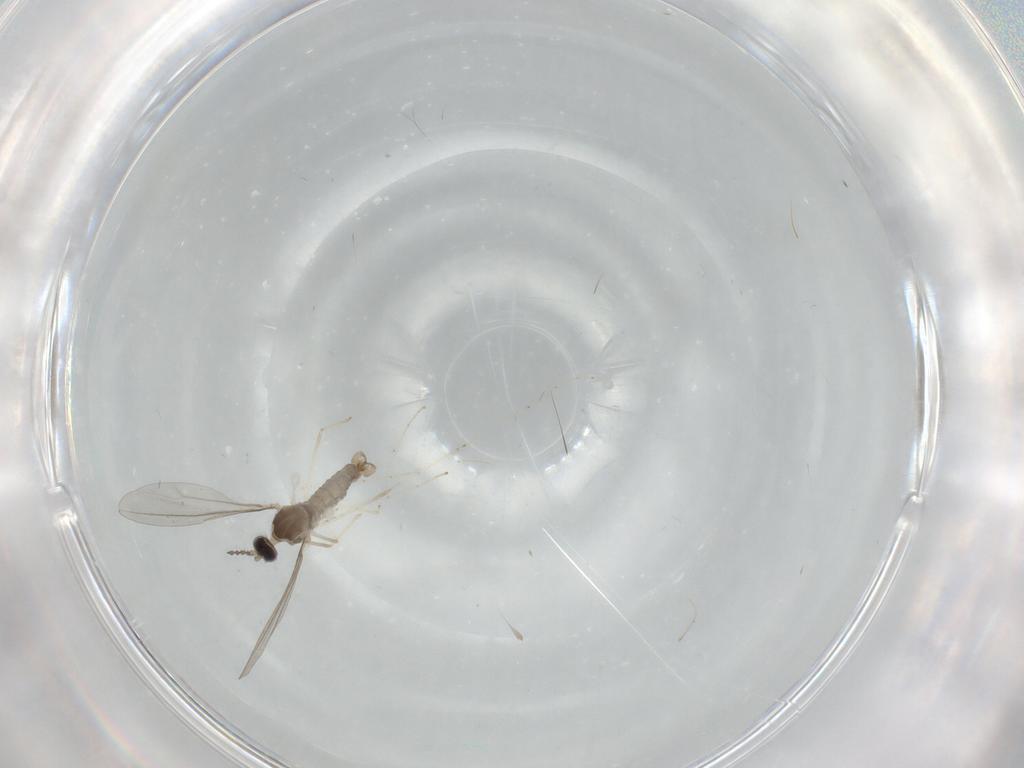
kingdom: Animalia
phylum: Arthropoda
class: Insecta
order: Diptera
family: Cecidomyiidae
